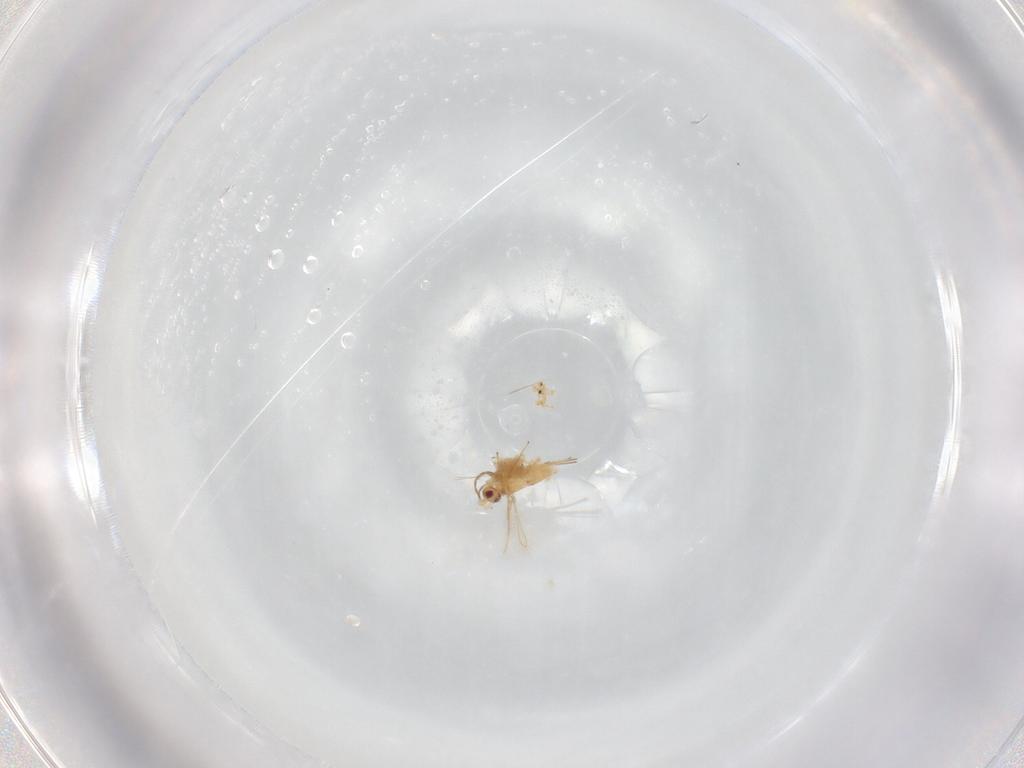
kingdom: Animalia
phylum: Arthropoda
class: Insecta
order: Hymenoptera
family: Mymaridae
